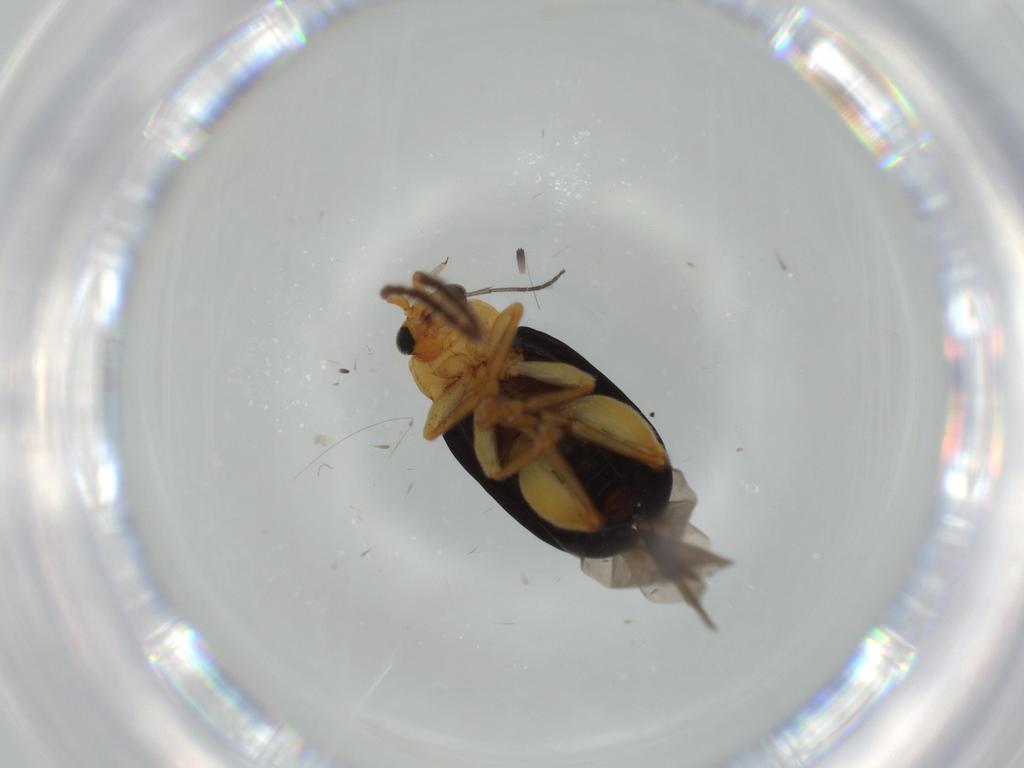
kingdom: Animalia
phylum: Arthropoda
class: Insecta
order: Coleoptera
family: Chrysomelidae
